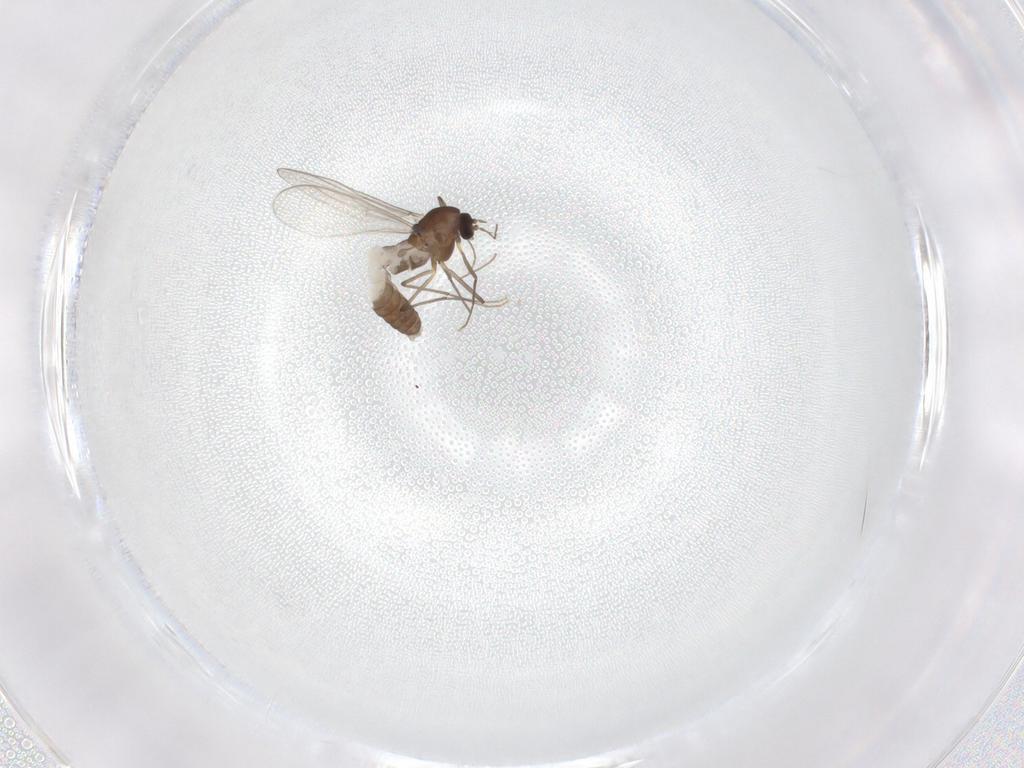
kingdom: Animalia
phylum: Arthropoda
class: Insecta
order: Diptera
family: Chironomidae
